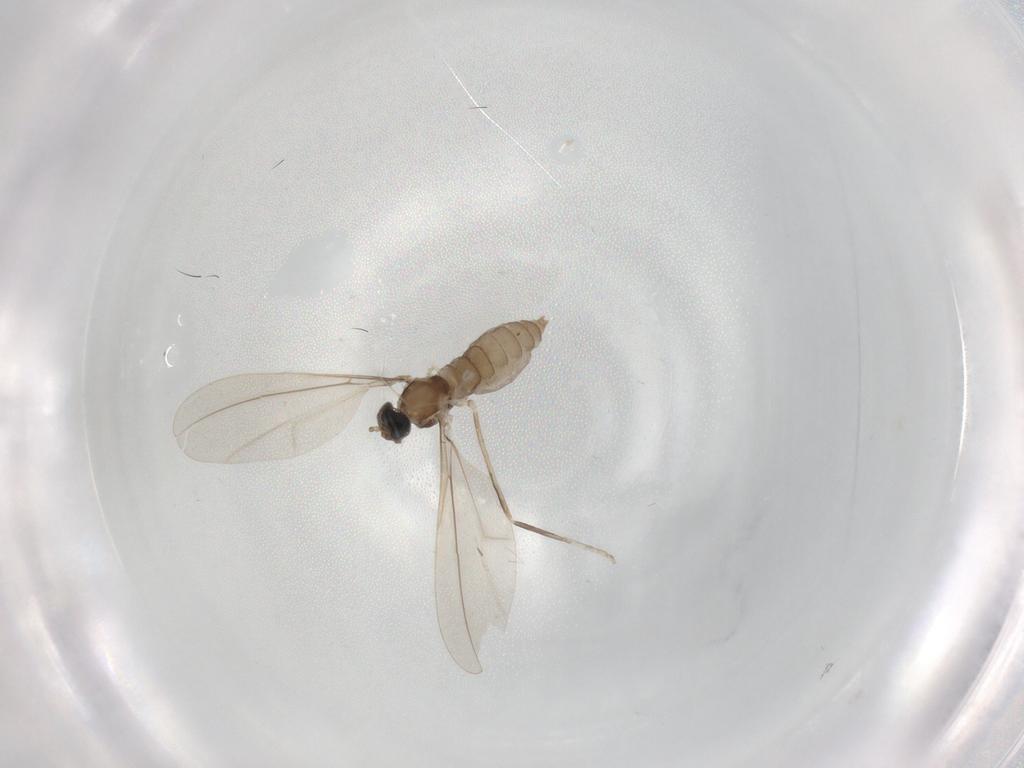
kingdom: Animalia
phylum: Arthropoda
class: Insecta
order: Diptera
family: Cecidomyiidae
